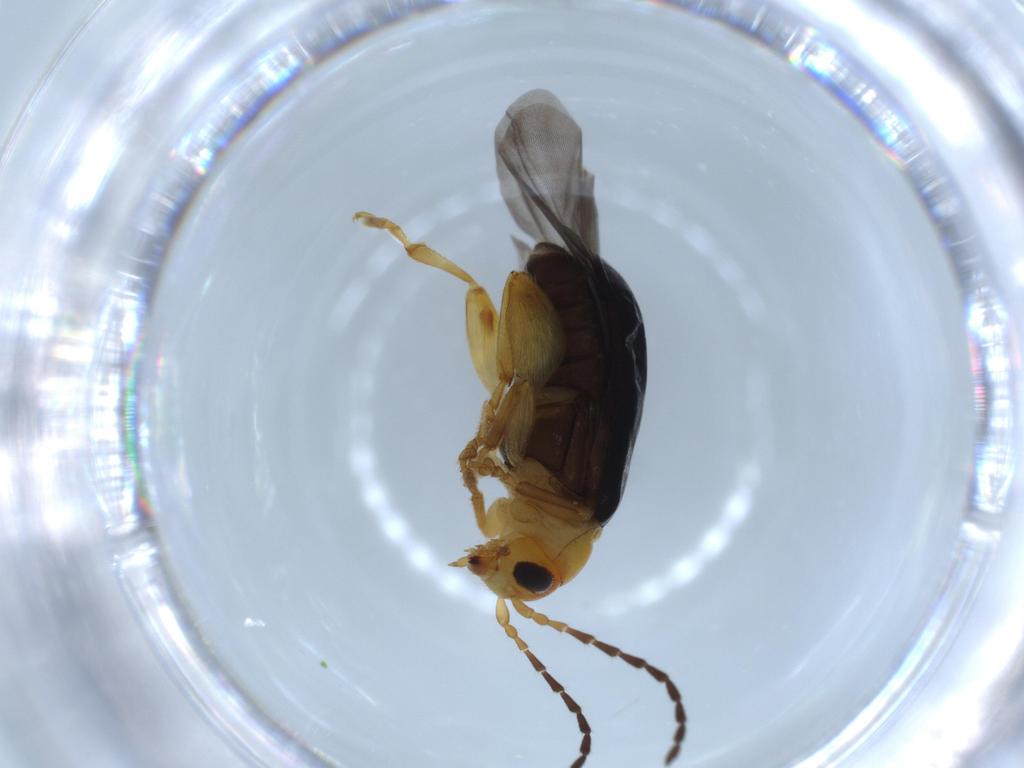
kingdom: Animalia
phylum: Arthropoda
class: Insecta
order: Coleoptera
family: Chrysomelidae
